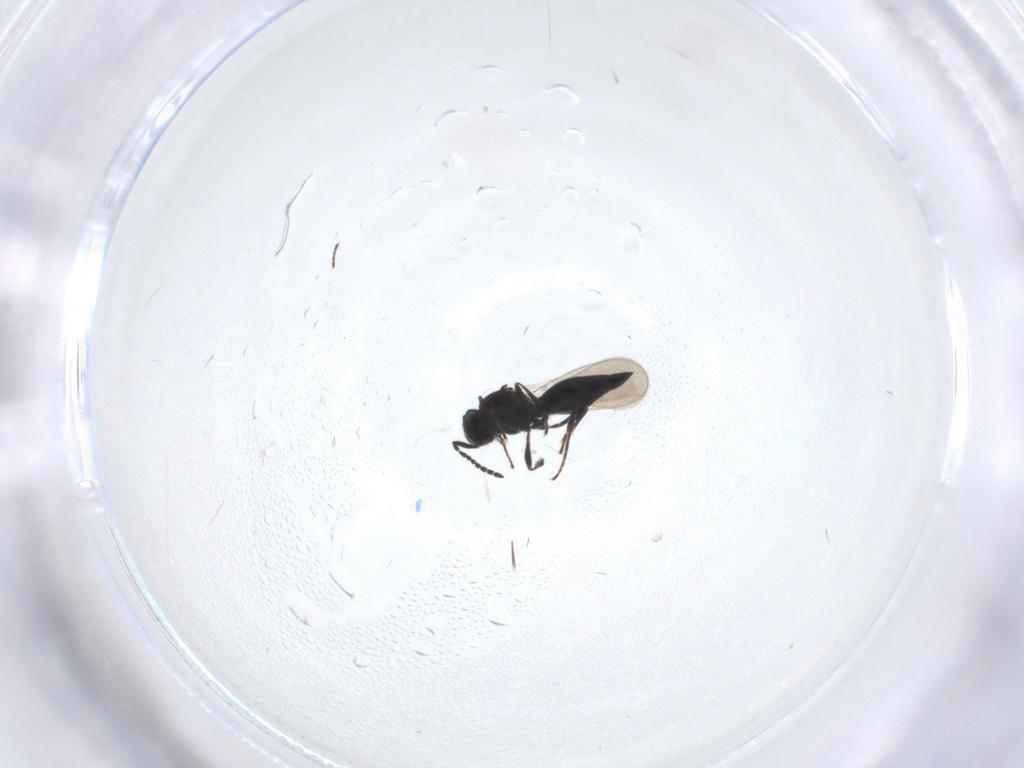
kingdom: Animalia
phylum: Arthropoda
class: Insecta
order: Hymenoptera
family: Platygastridae
